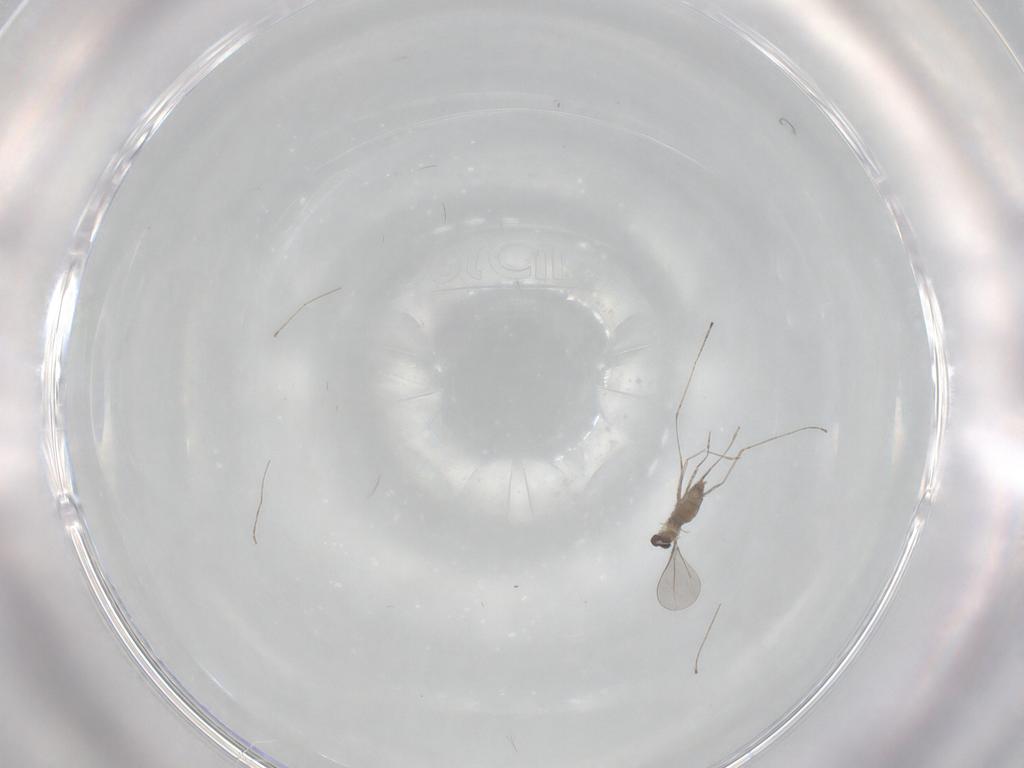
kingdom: Animalia
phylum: Arthropoda
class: Insecta
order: Diptera
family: Cecidomyiidae
